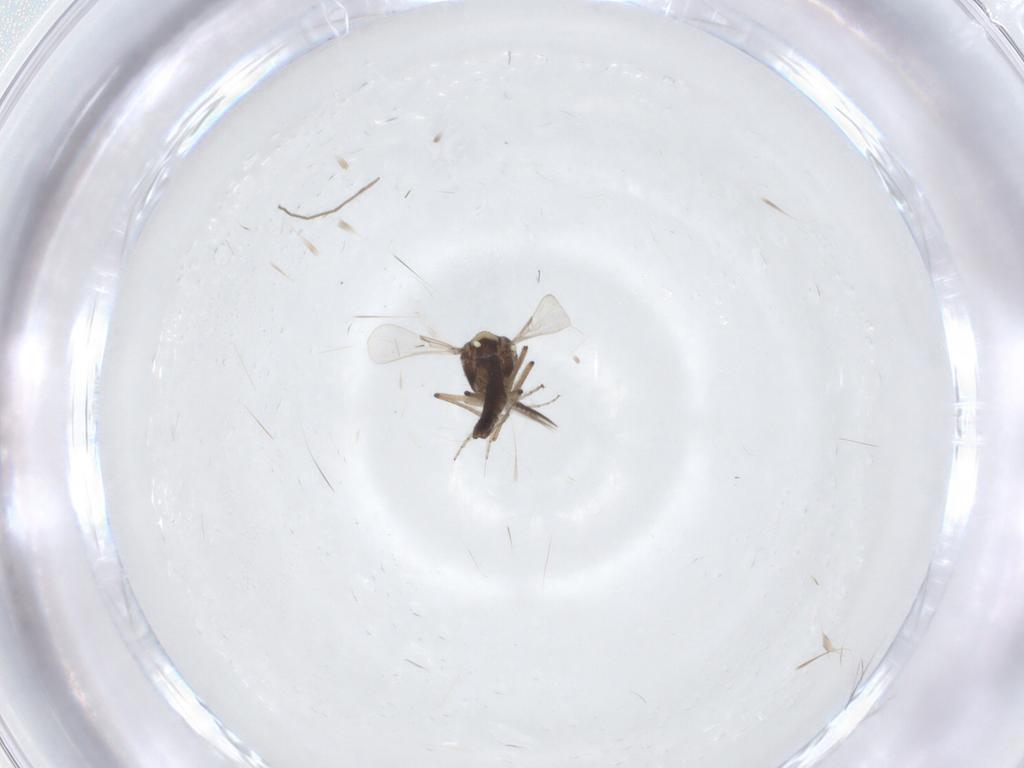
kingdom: Animalia
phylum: Arthropoda
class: Insecta
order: Diptera
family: Ceratopogonidae
